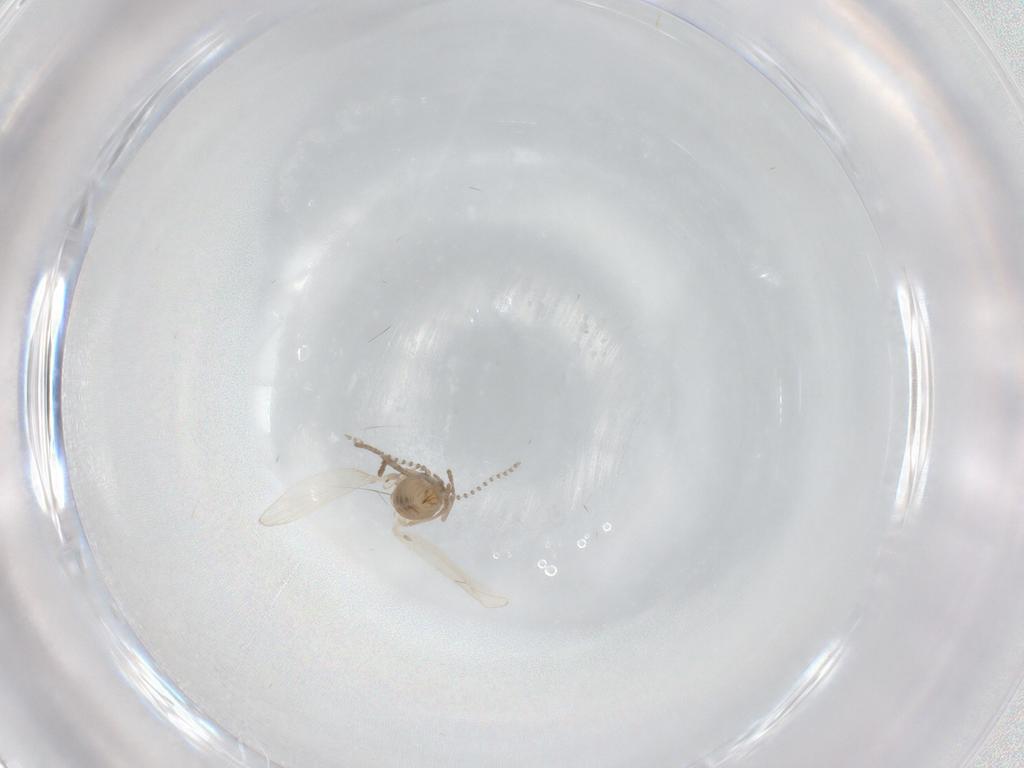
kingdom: Animalia
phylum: Arthropoda
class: Insecta
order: Diptera
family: Psychodidae
